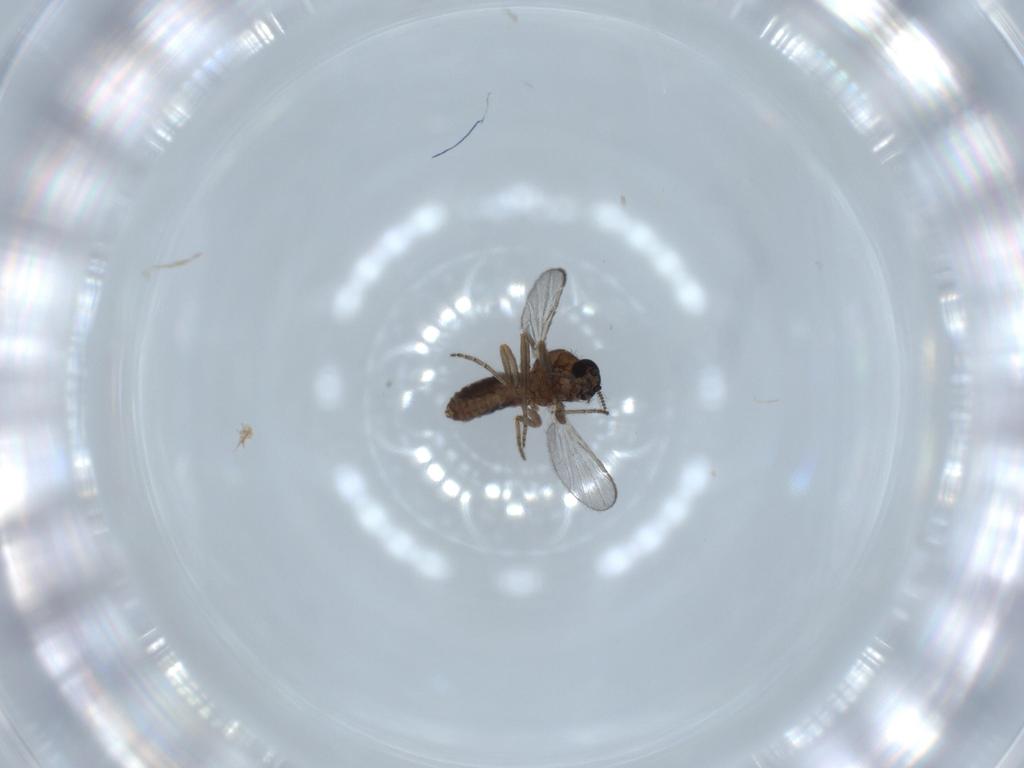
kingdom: Animalia
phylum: Arthropoda
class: Insecta
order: Diptera
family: Ceratopogonidae
